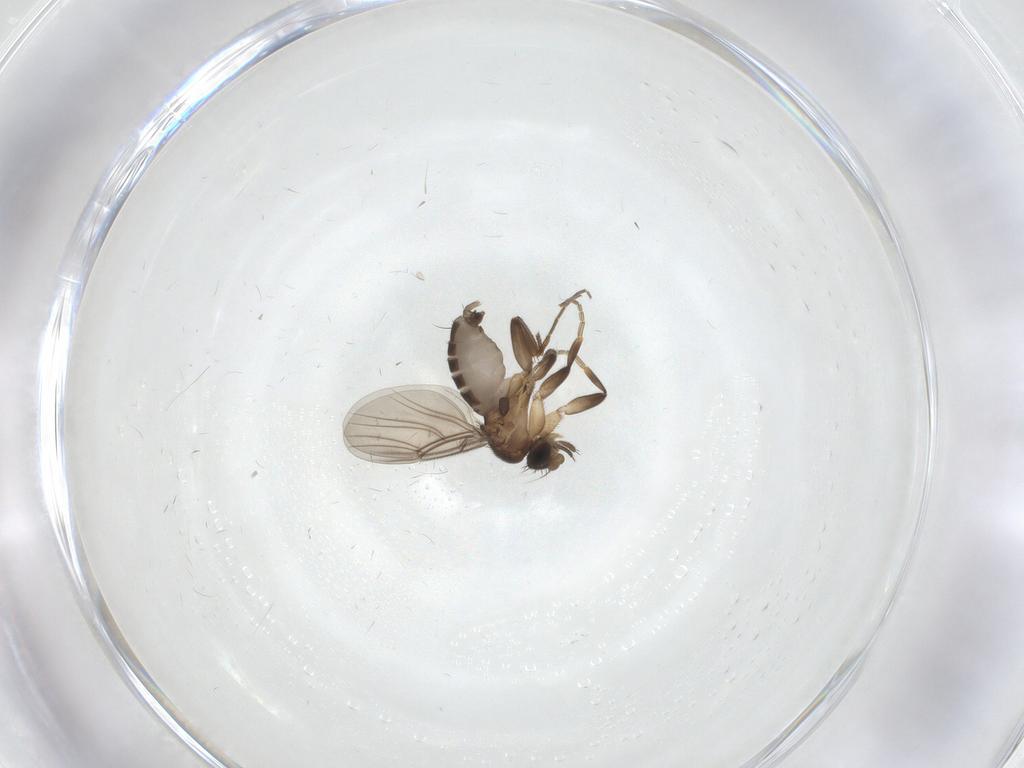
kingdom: Animalia
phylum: Arthropoda
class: Insecta
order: Diptera
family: Phoridae
